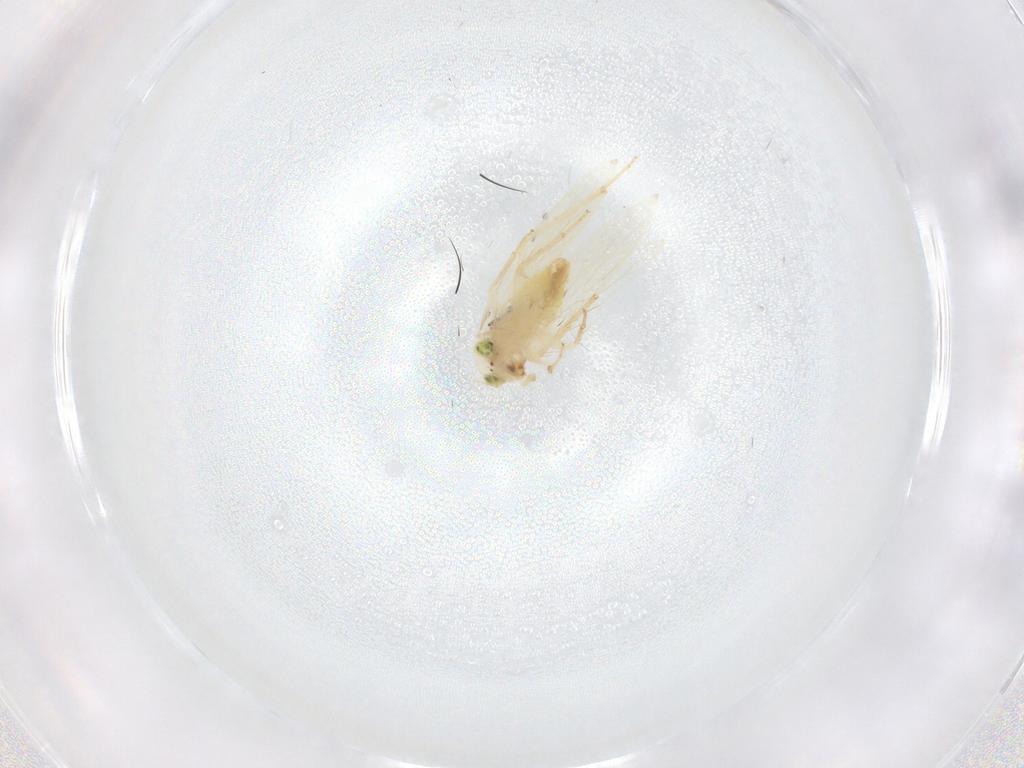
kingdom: Animalia
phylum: Arthropoda
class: Insecta
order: Psocodea
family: Lepidopsocidae
